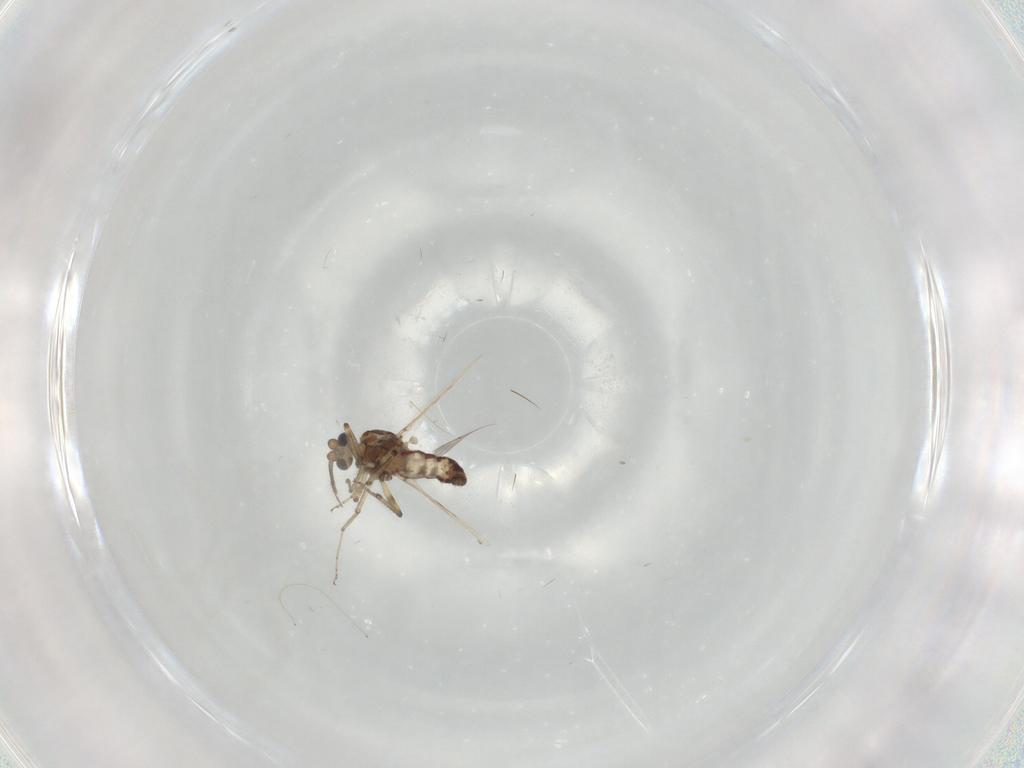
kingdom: Animalia
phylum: Arthropoda
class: Insecta
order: Diptera
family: Ceratopogonidae
